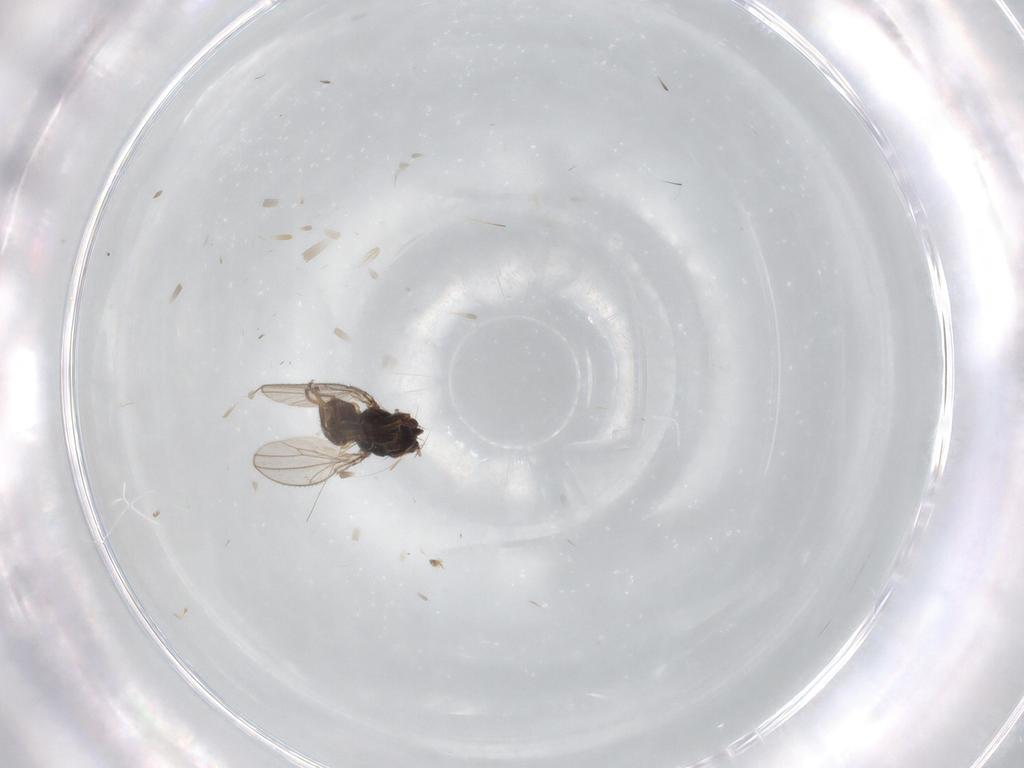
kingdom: Animalia
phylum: Arthropoda
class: Insecta
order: Diptera
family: Ephydridae
